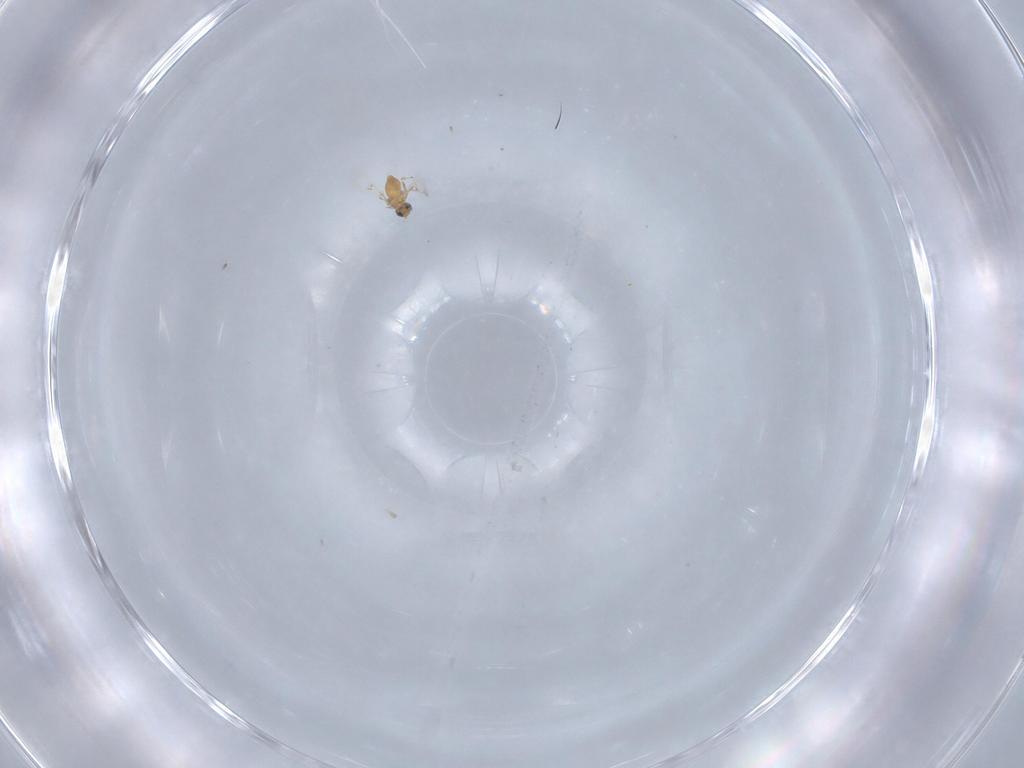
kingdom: Animalia
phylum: Arthropoda
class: Insecta
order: Hymenoptera
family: Trichogrammatidae
